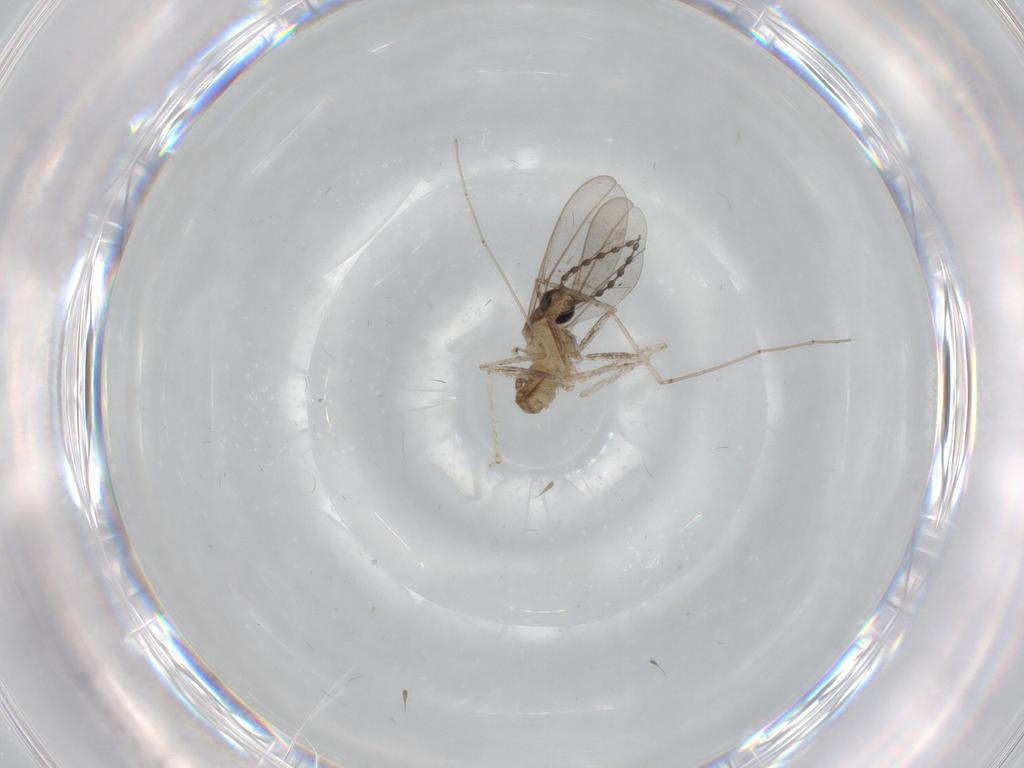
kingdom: Animalia
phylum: Arthropoda
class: Insecta
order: Diptera
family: Cecidomyiidae
